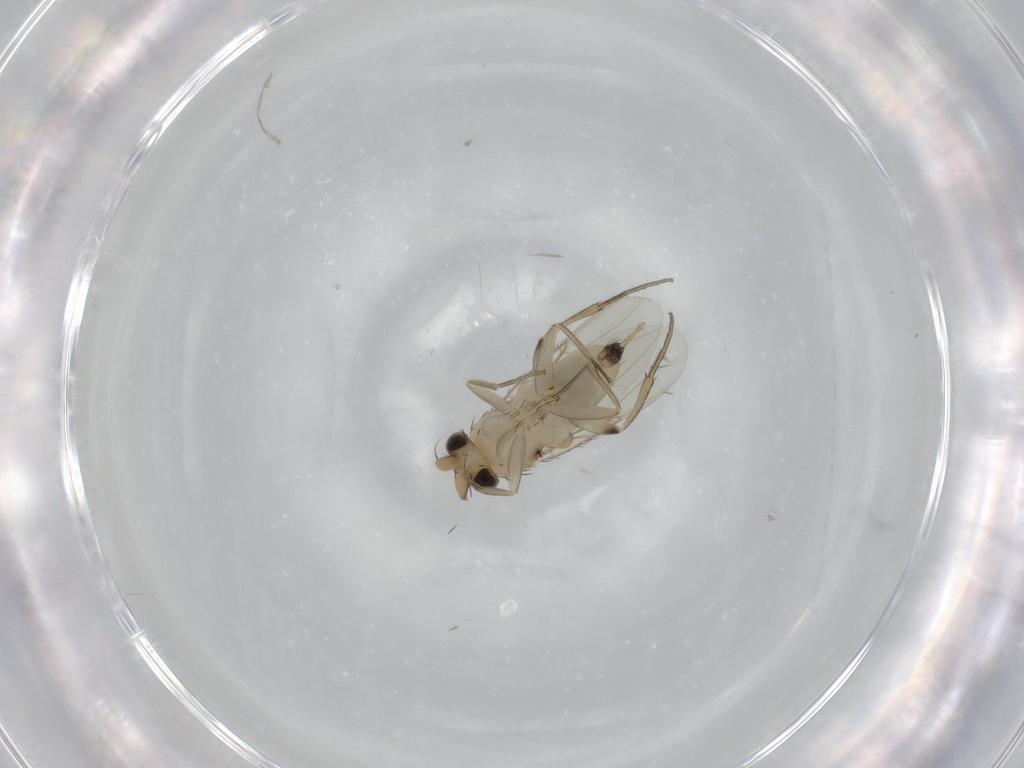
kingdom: Animalia
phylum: Arthropoda
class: Insecta
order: Diptera
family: Phoridae
